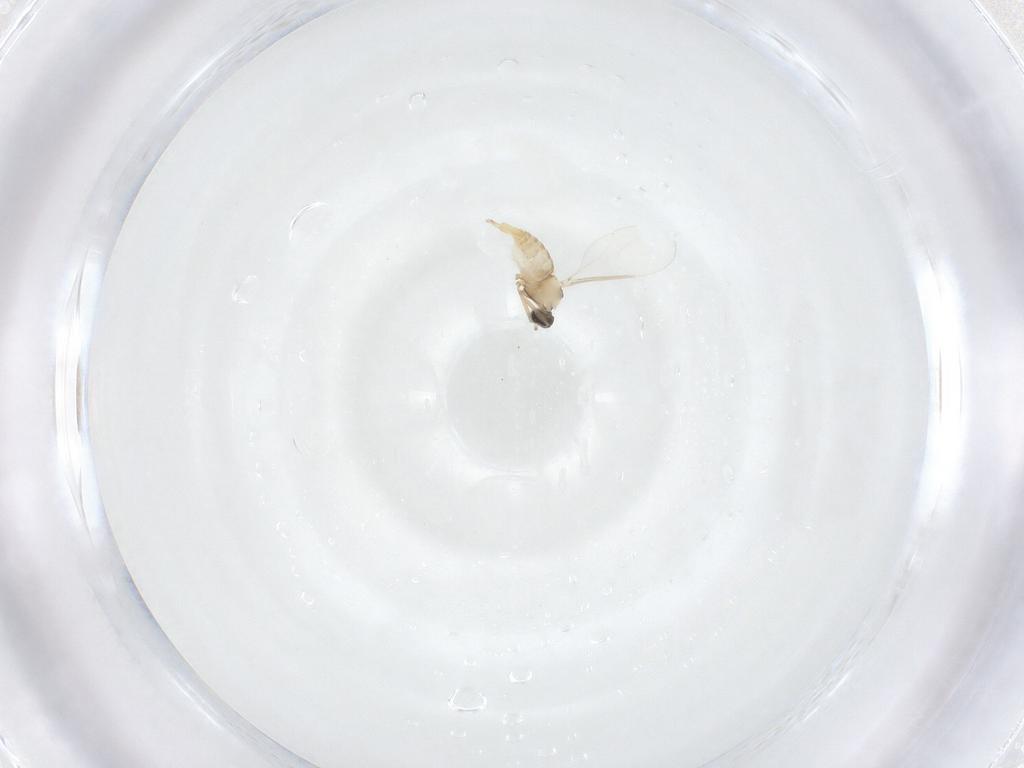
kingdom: Animalia
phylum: Arthropoda
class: Insecta
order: Diptera
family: Cecidomyiidae
